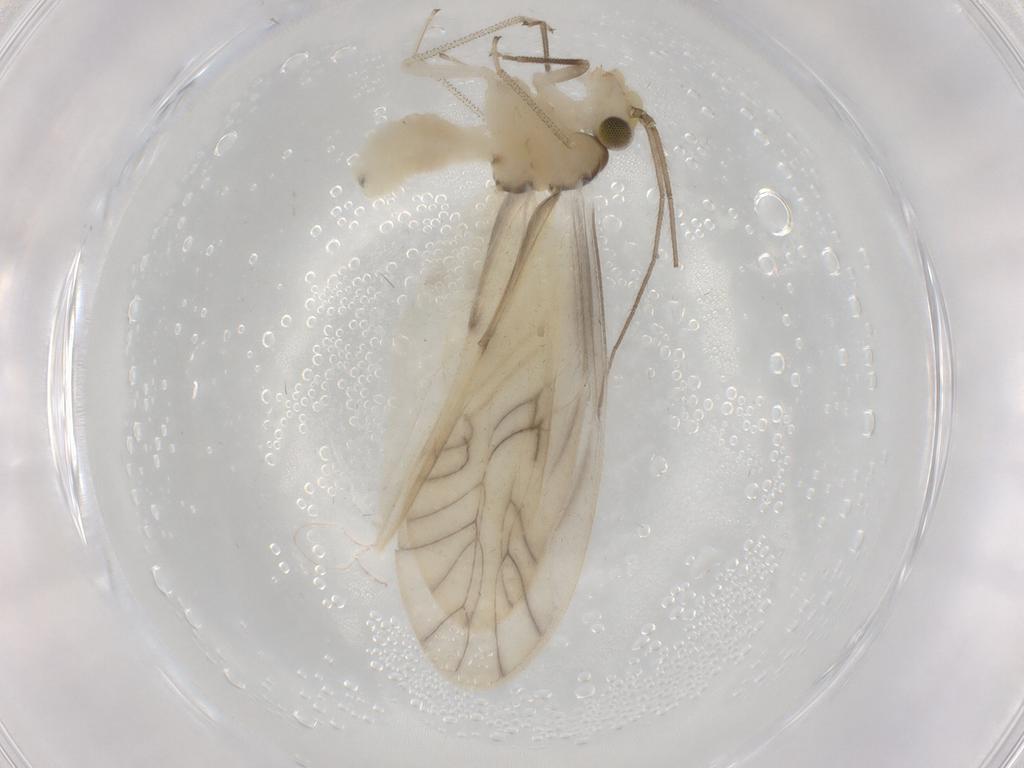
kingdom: Animalia
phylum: Arthropoda
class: Insecta
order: Psocodea
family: Caeciliusidae
